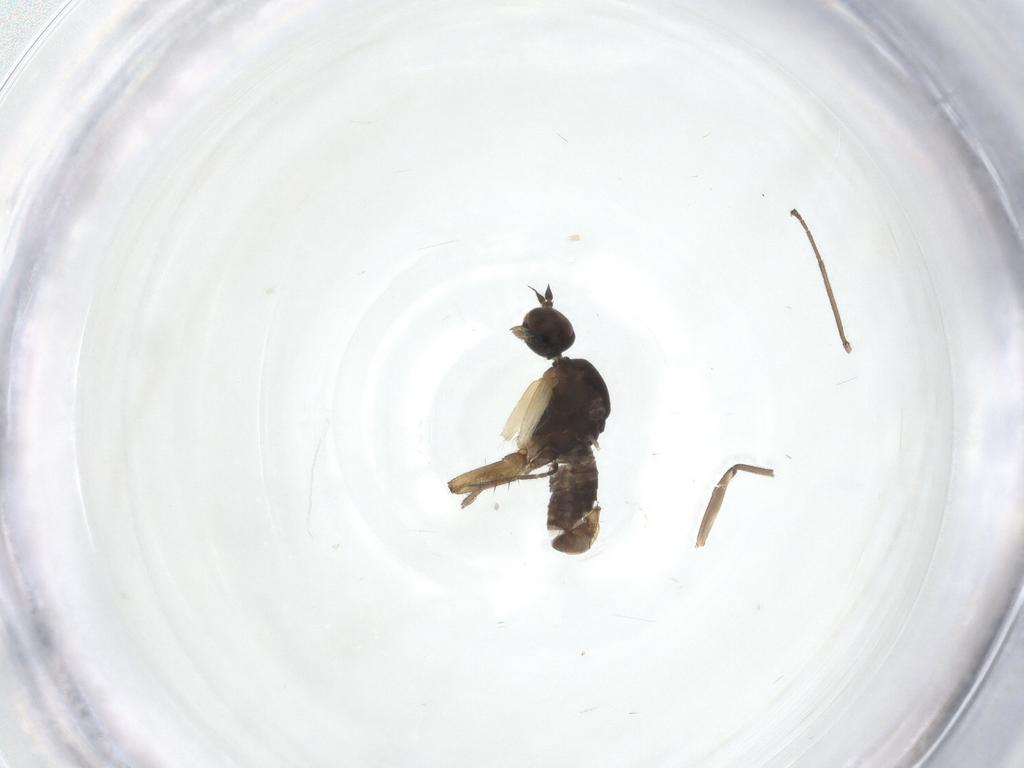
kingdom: Animalia
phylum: Arthropoda
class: Insecta
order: Diptera
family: Empididae
